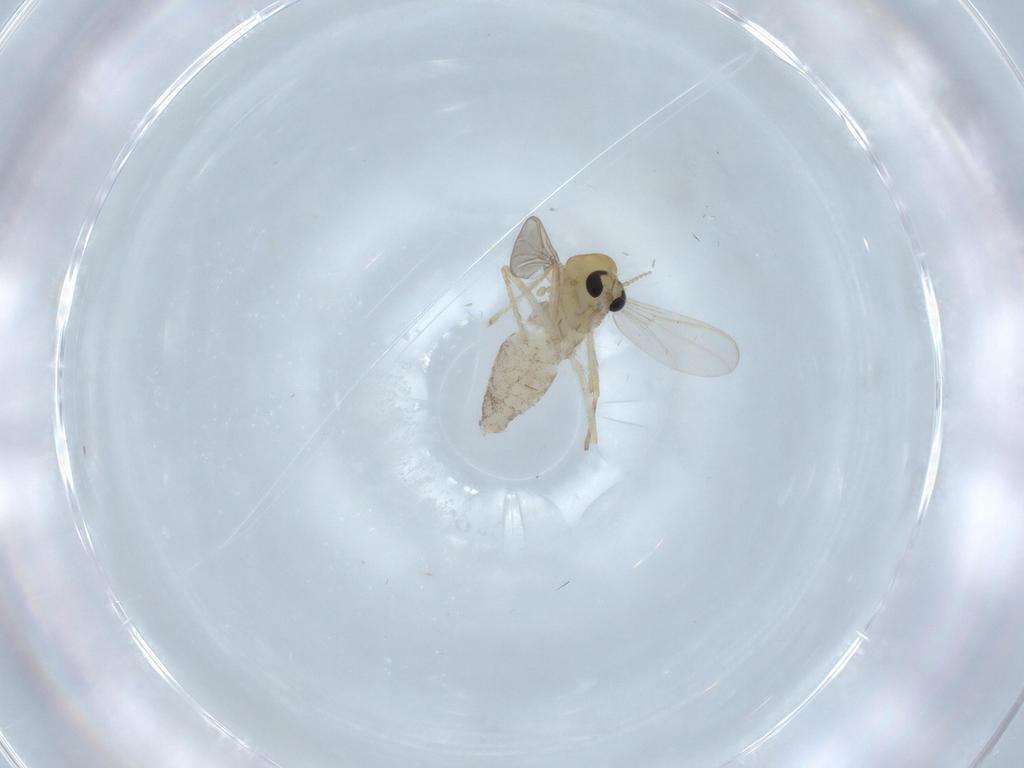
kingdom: Animalia
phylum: Arthropoda
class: Insecta
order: Diptera
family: Chironomidae
